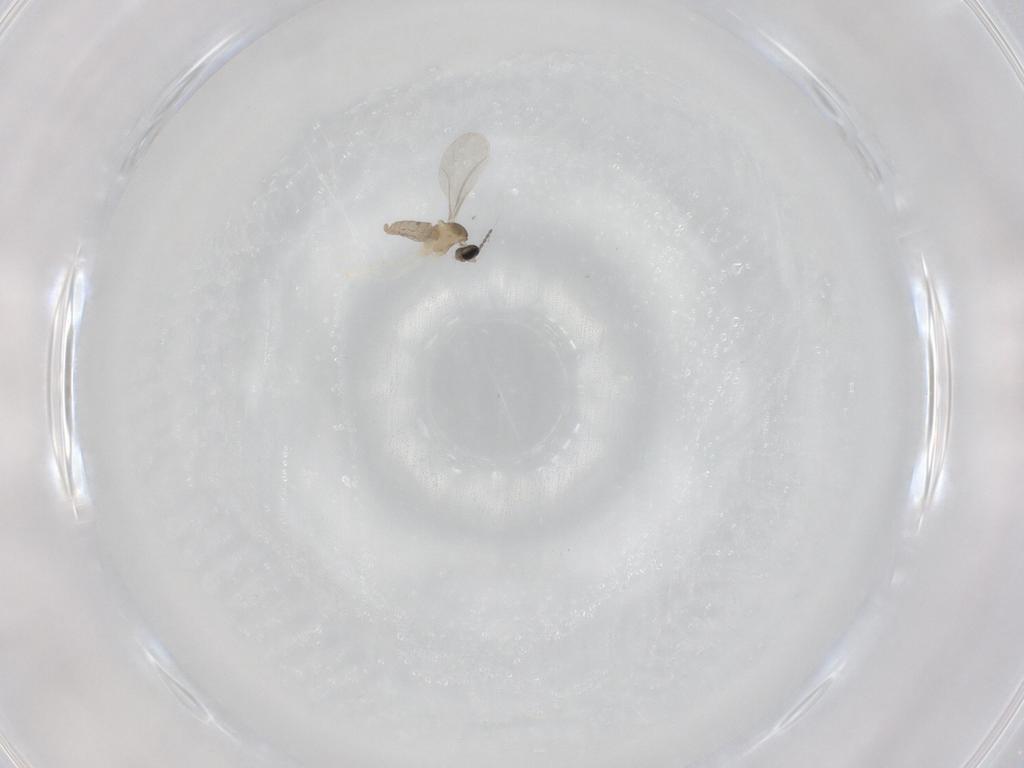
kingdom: Animalia
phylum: Arthropoda
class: Insecta
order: Diptera
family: Cecidomyiidae
